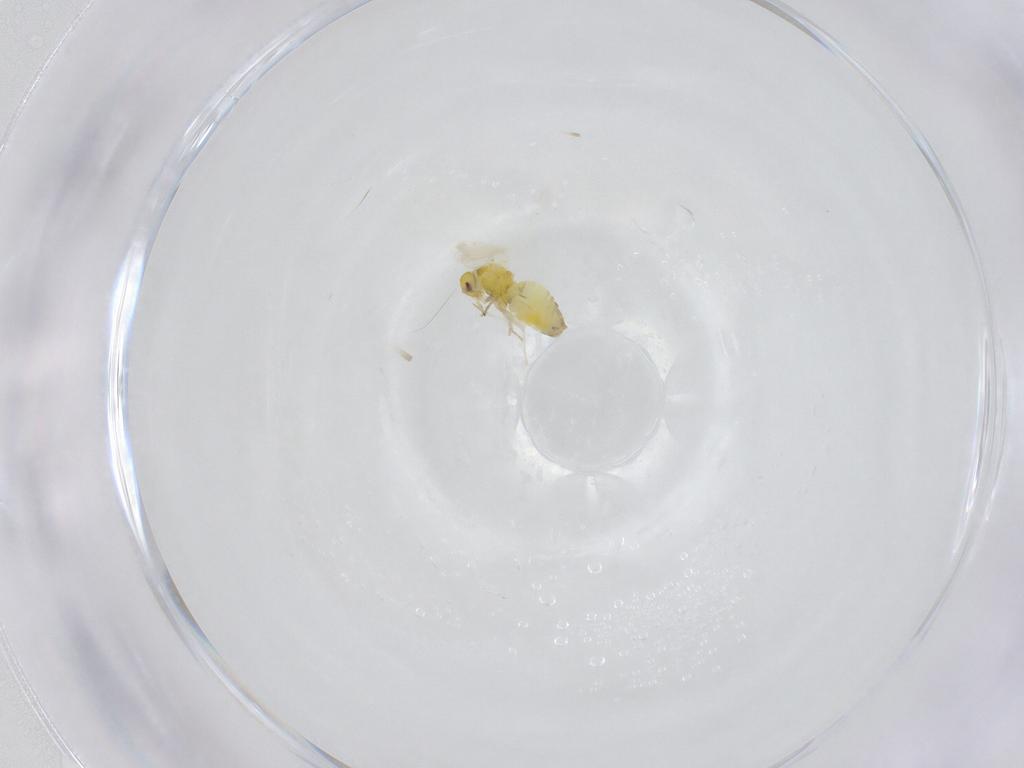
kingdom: Animalia
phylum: Arthropoda
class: Insecta
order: Hemiptera
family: Aleyrodidae
